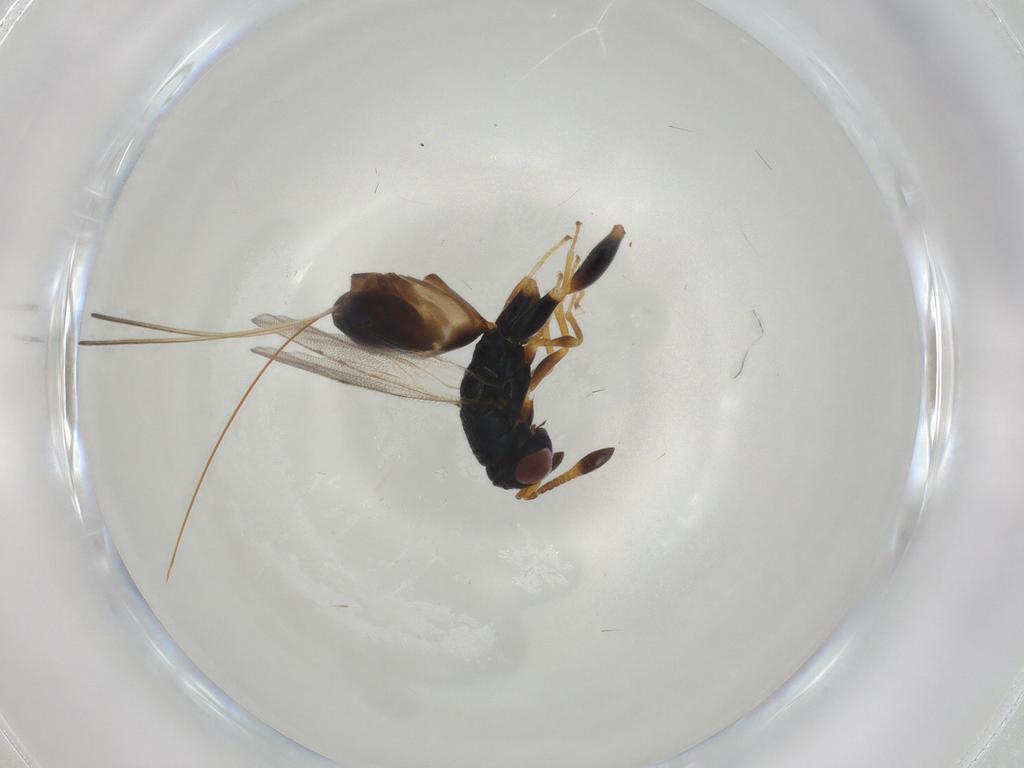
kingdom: Animalia
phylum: Arthropoda
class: Insecta
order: Hymenoptera
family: Torymidae
